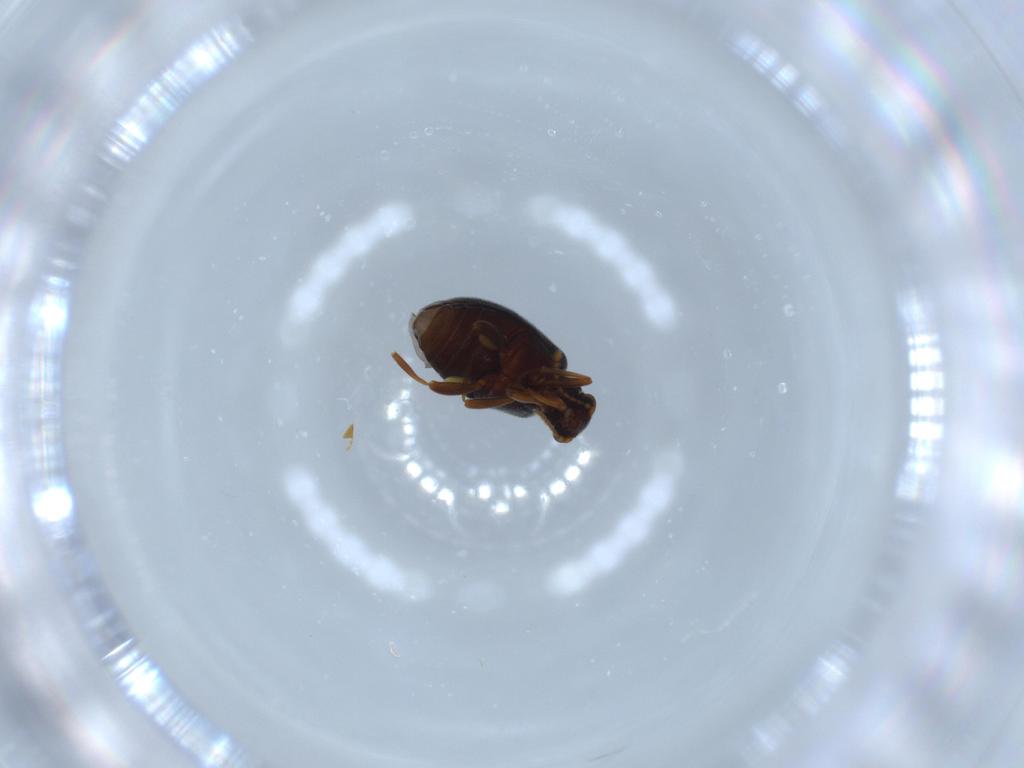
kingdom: Animalia
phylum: Arthropoda
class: Insecta
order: Coleoptera
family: Aderidae
